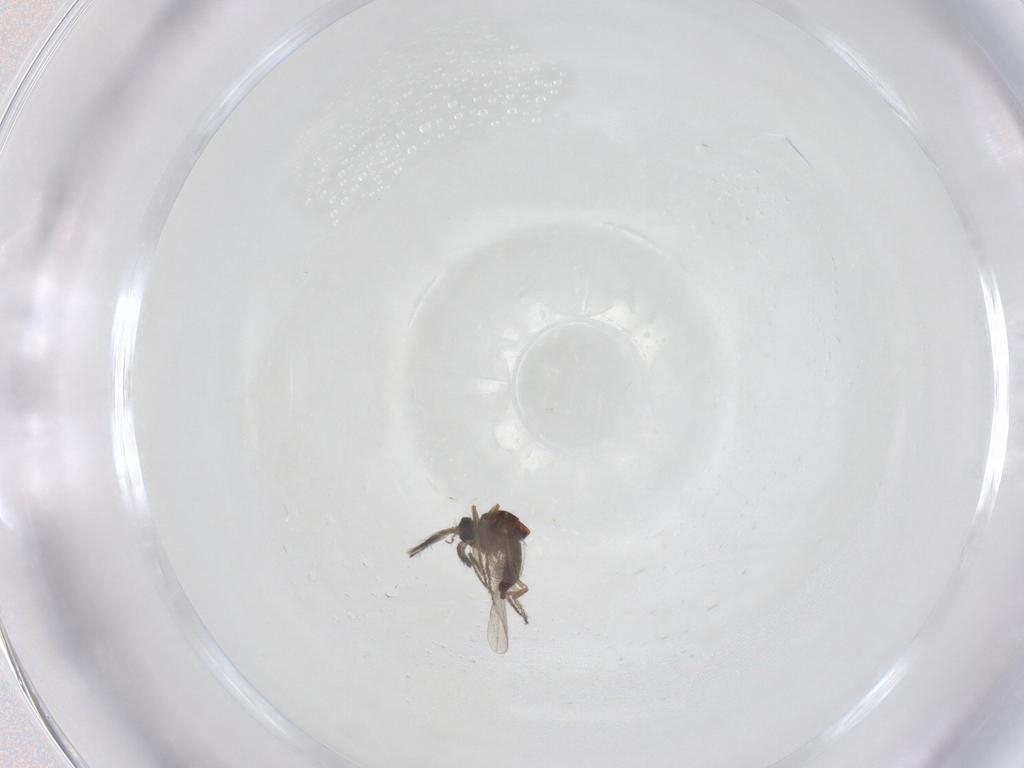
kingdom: Animalia
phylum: Arthropoda
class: Insecta
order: Diptera
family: Ceratopogonidae
